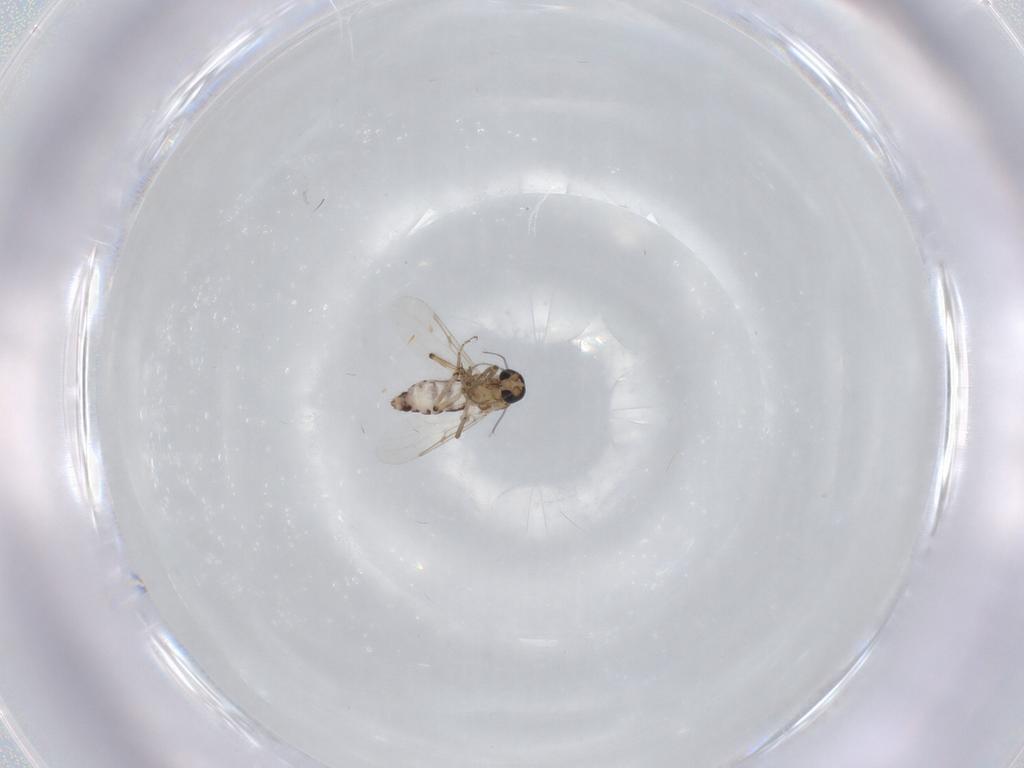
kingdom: Animalia
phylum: Arthropoda
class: Insecta
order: Diptera
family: Ceratopogonidae
